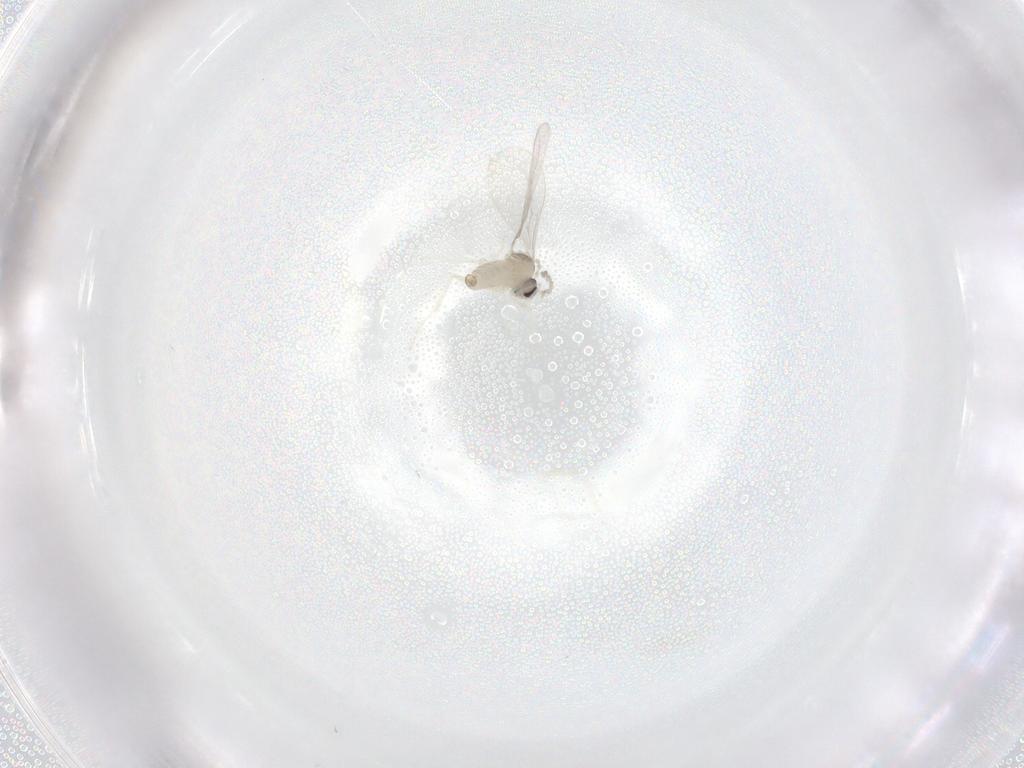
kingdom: Animalia
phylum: Arthropoda
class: Insecta
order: Diptera
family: Cecidomyiidae
